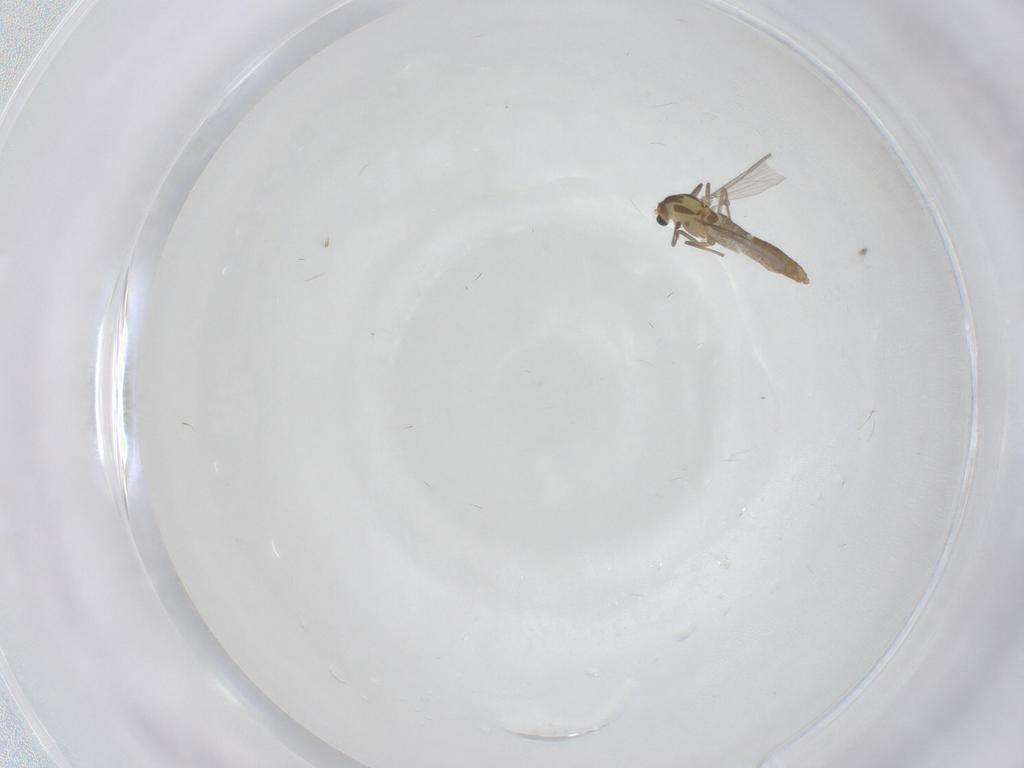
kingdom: Animalia
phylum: Arthropoda
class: Insecta
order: Diptera
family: Chironomidae
